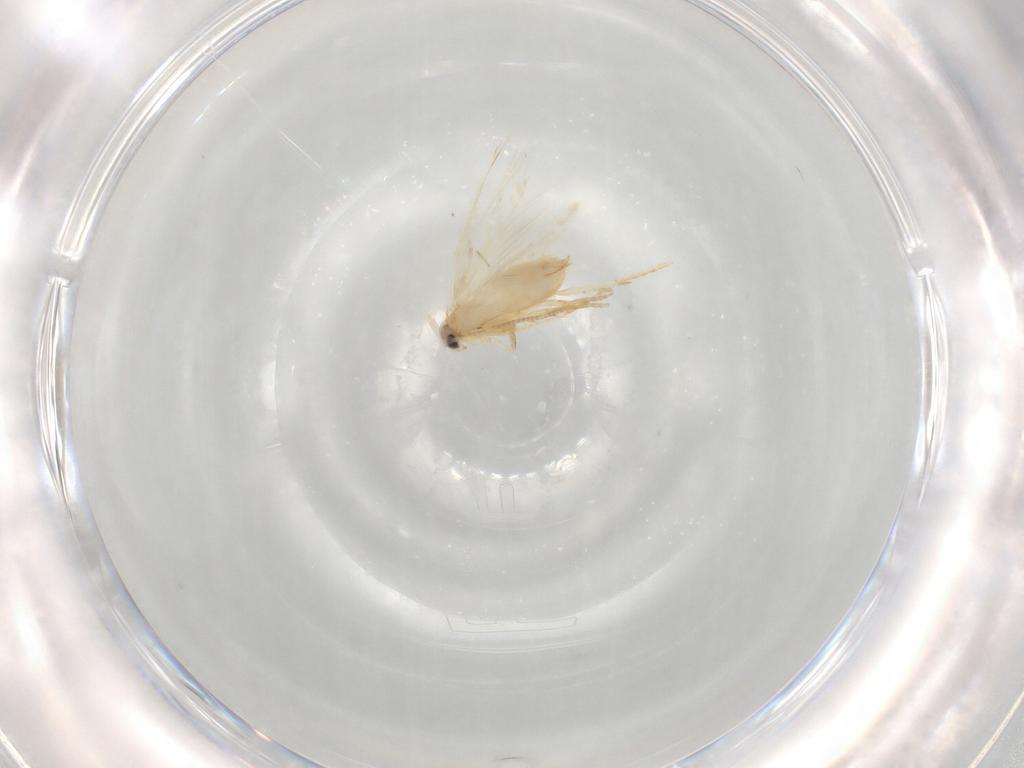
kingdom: Animalia
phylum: Arthropoda
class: Insecta
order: Lepidoptera
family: Nepticulidae
